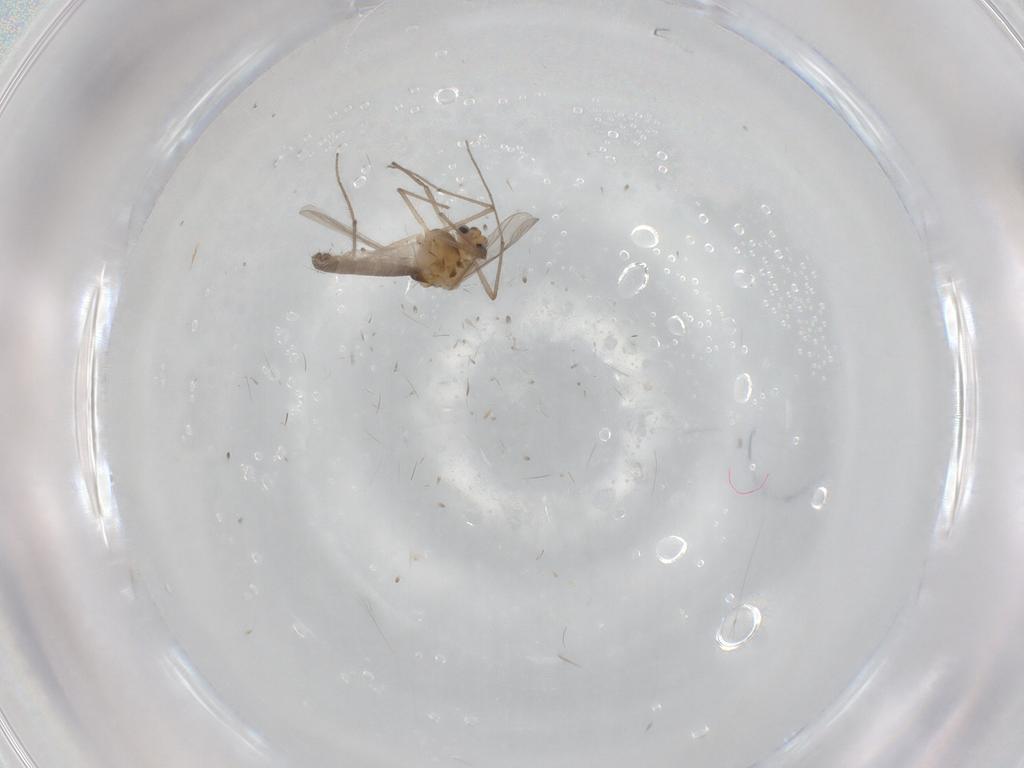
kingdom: Animalia
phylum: Arthropoda
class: Insecta
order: Diptera
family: Chironomidae
